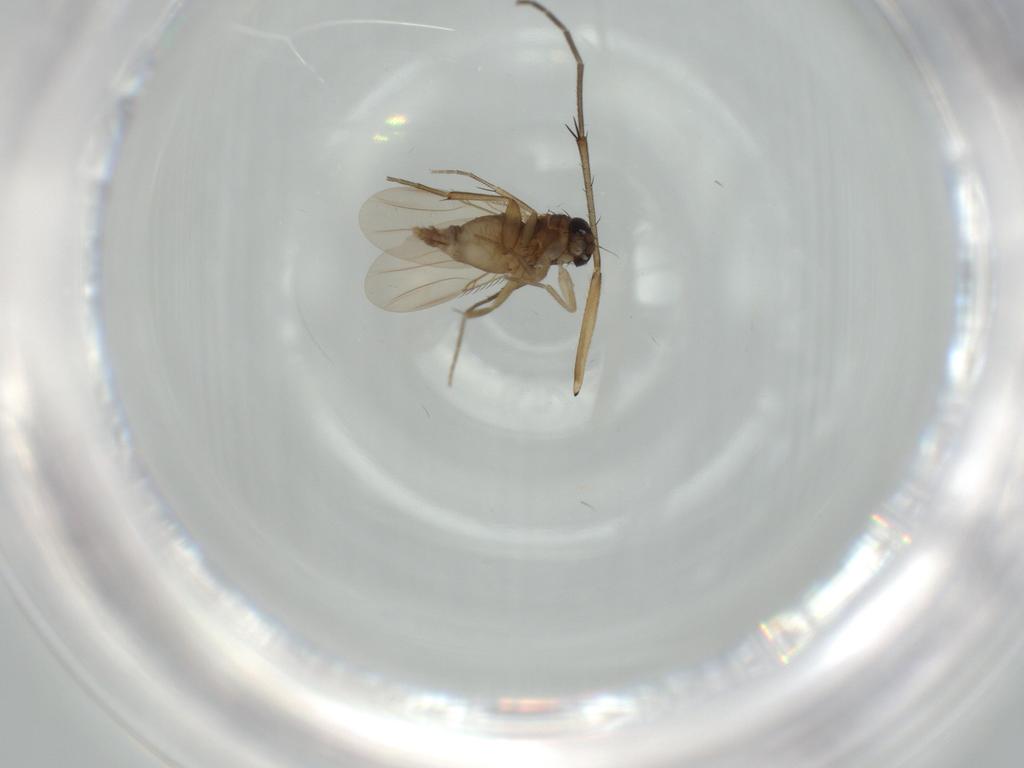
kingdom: Animalia
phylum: Arthropoda
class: Insecta
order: Diptera
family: Phoridae
